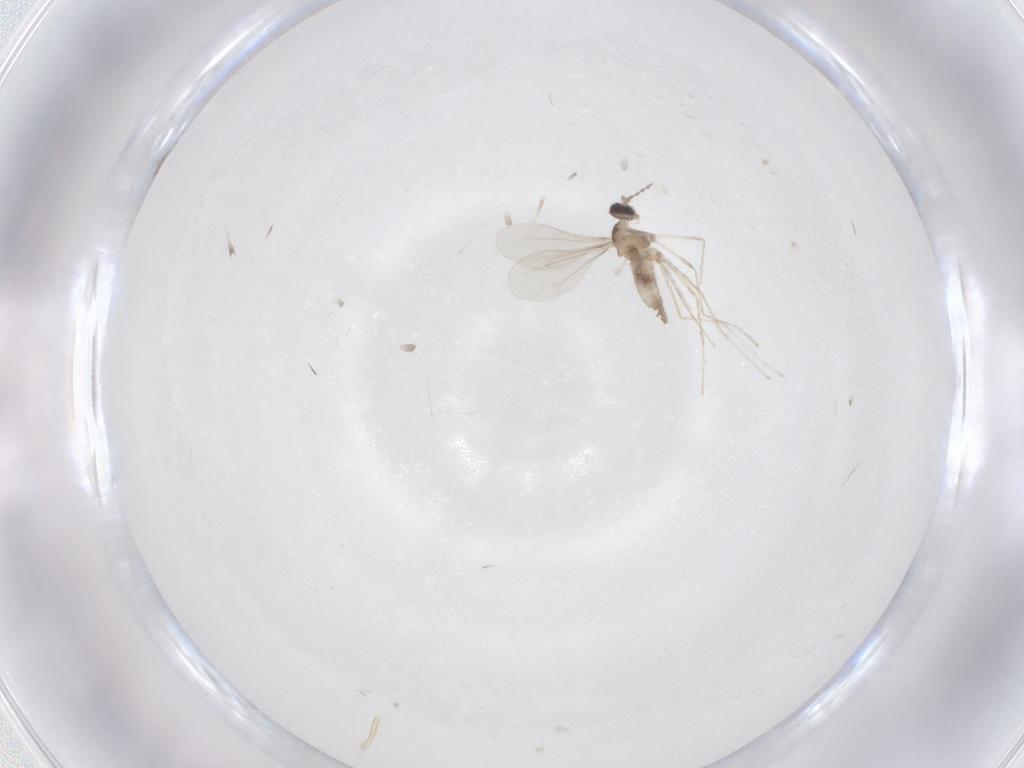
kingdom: Animalia
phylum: Arthropoda
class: Insecta
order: Diptera
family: Cecidomyiidae
